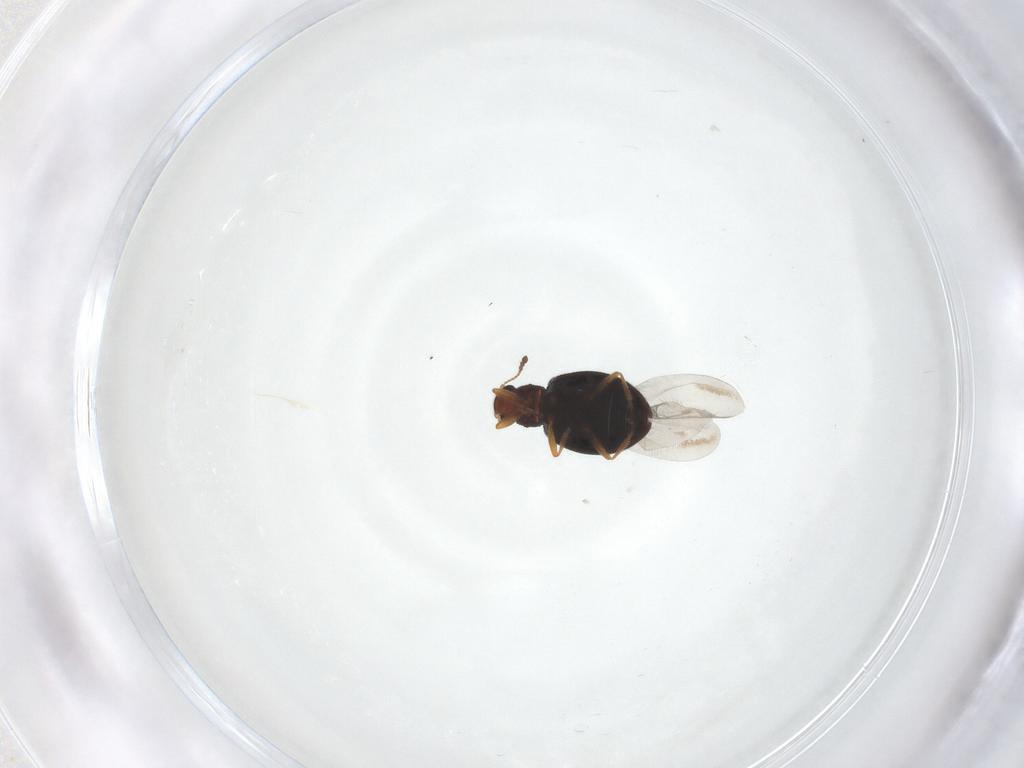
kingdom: Animalia
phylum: Arthropoda
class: Insecta
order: Coleoptera
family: Latridiidae
